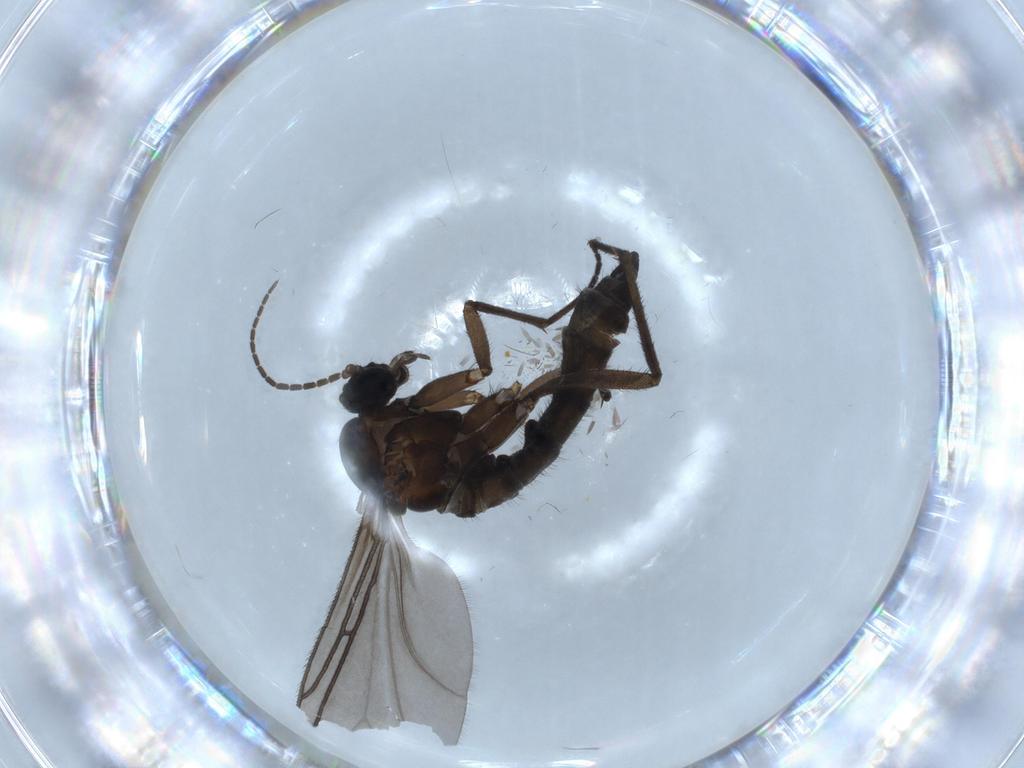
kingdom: Animalia
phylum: Arthropoda
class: Insecta
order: Diptera
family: Sciaridae
